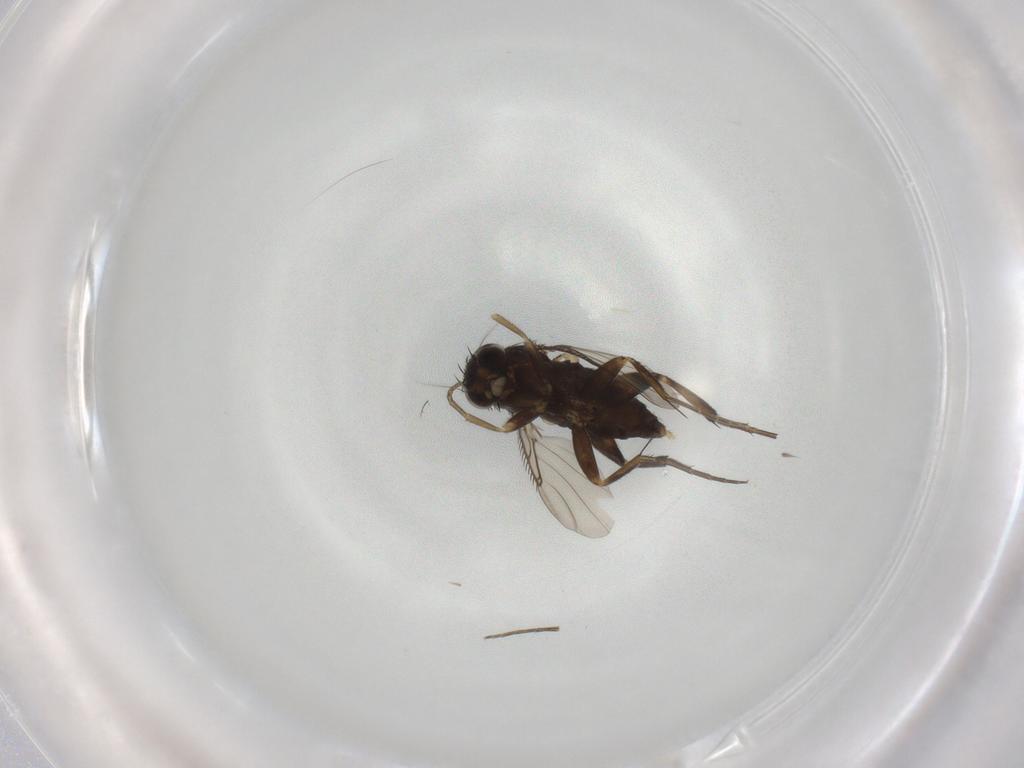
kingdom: Animalia
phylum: Arthropoda
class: Insecta
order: Diptera
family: Phoridae
